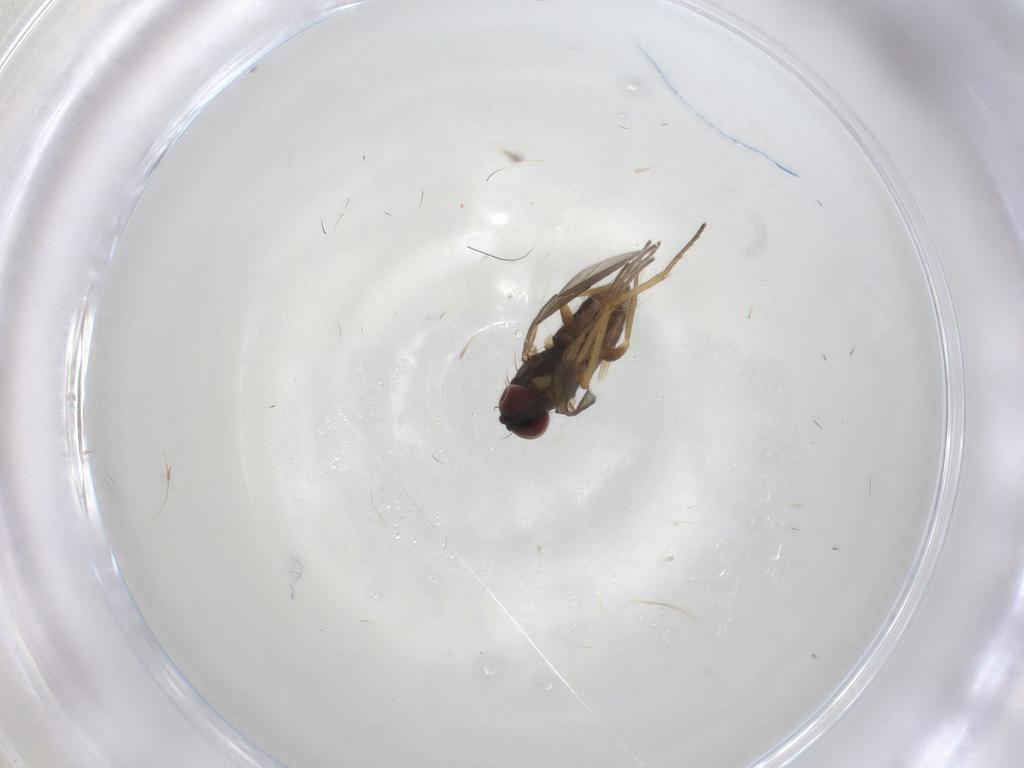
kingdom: Animalia
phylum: Arthropoda
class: Insecta
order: Diptera
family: Dolichopodidae
